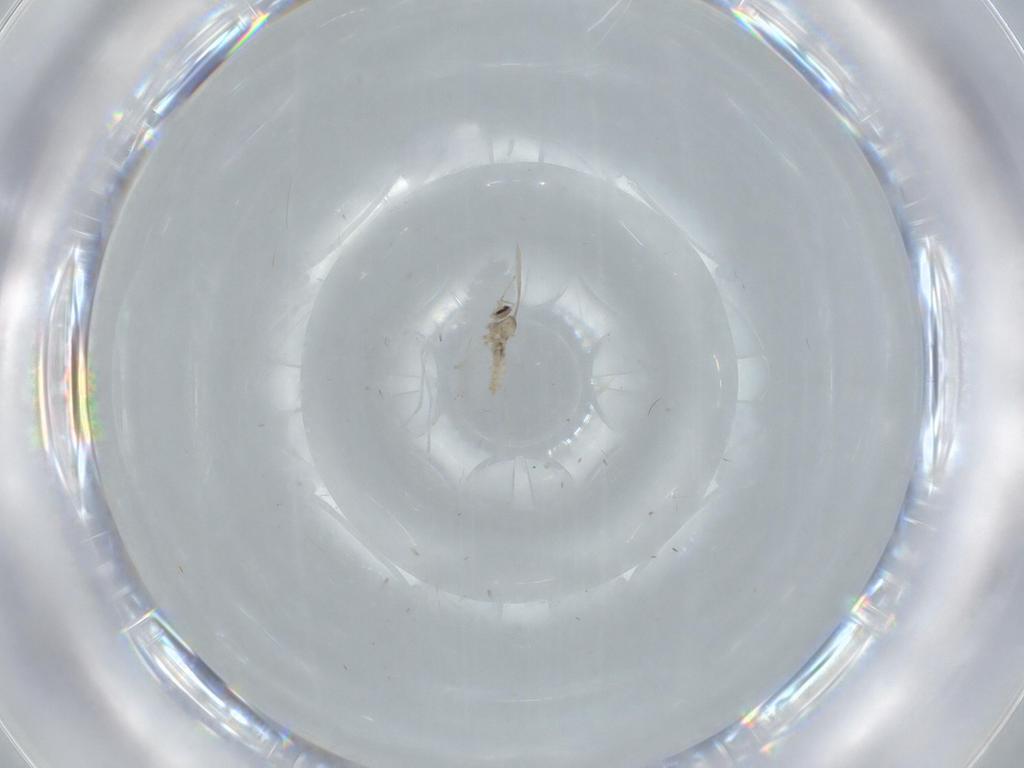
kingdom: Animalia
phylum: Arthropoda
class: Insecta
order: Diptera
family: Cecidomyiidae
